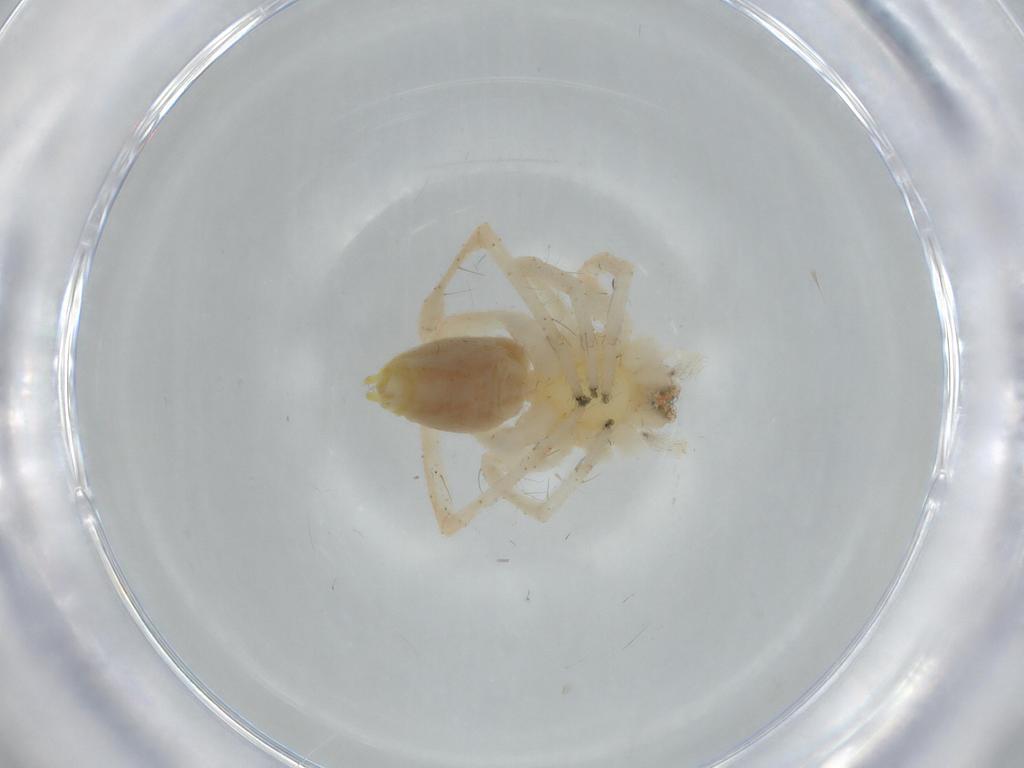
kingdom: Animalia
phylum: Arthropoda
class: Arachnida
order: Araneae
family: Anyphaenidae
